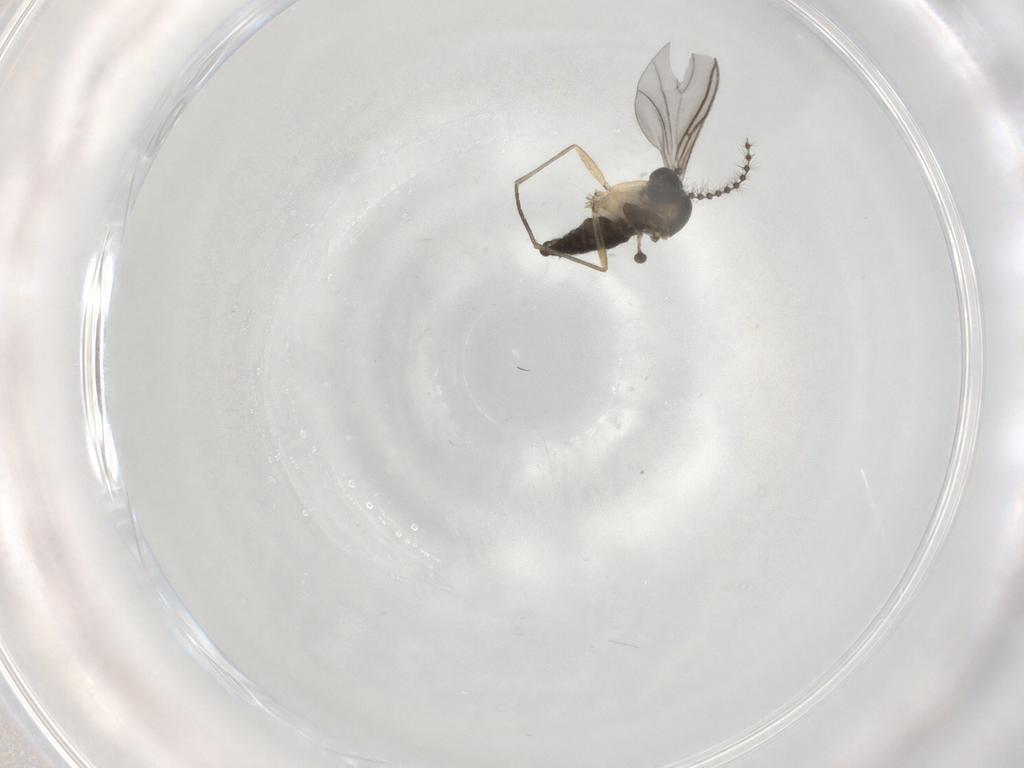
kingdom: Animalia
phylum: Arthropoda
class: Insecta
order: Diptera
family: Sciaridae
